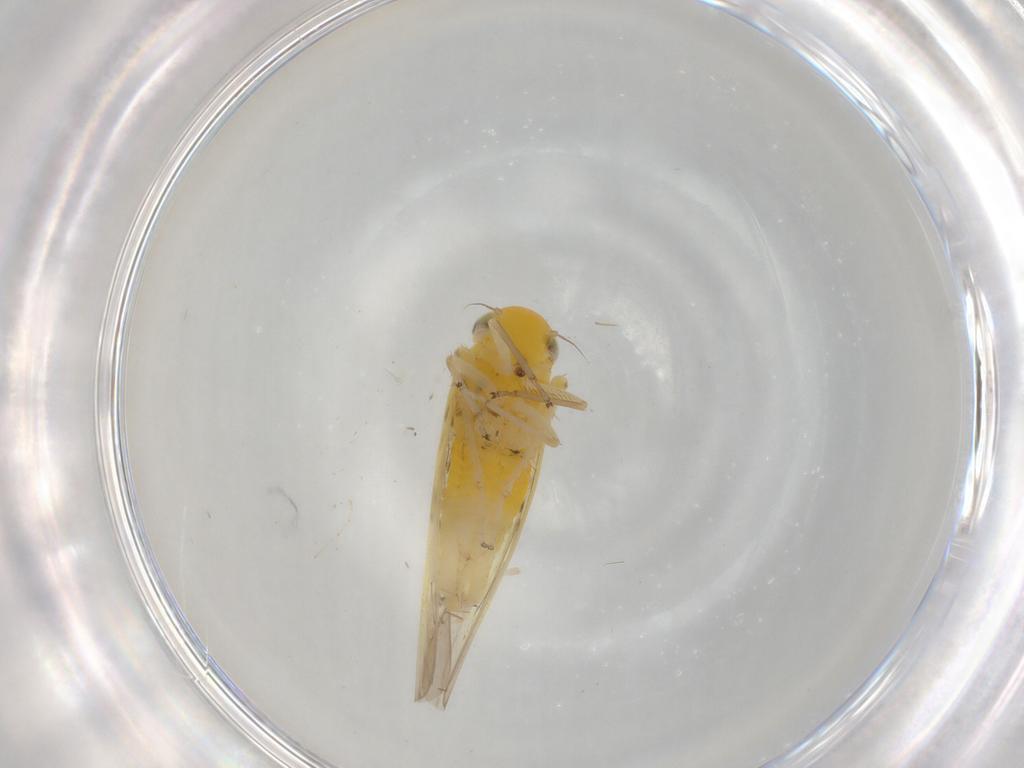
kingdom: Animalia
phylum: Arthropoda
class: Insecta
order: Hemiptera
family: Cicadellidae
